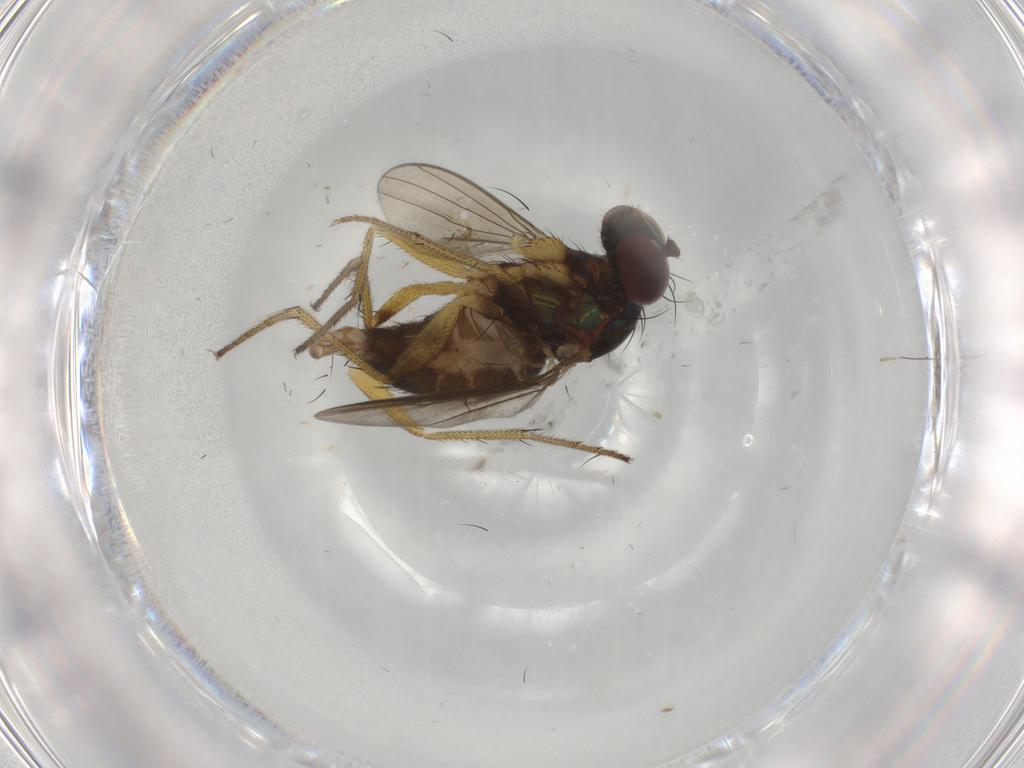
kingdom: Animalia
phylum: Arthropoda
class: Insecta
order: Diptera
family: Dolichopodidae
